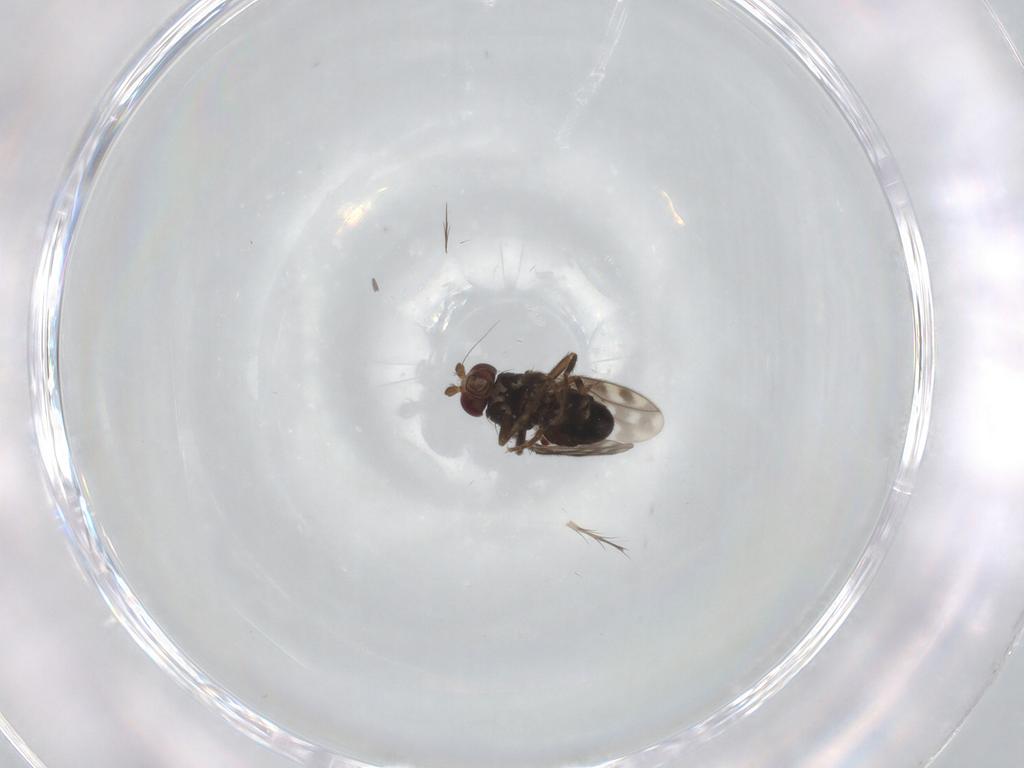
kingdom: Animalia
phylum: Arthropoda
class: Insecta
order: Diptera
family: Sphaeroceridae
